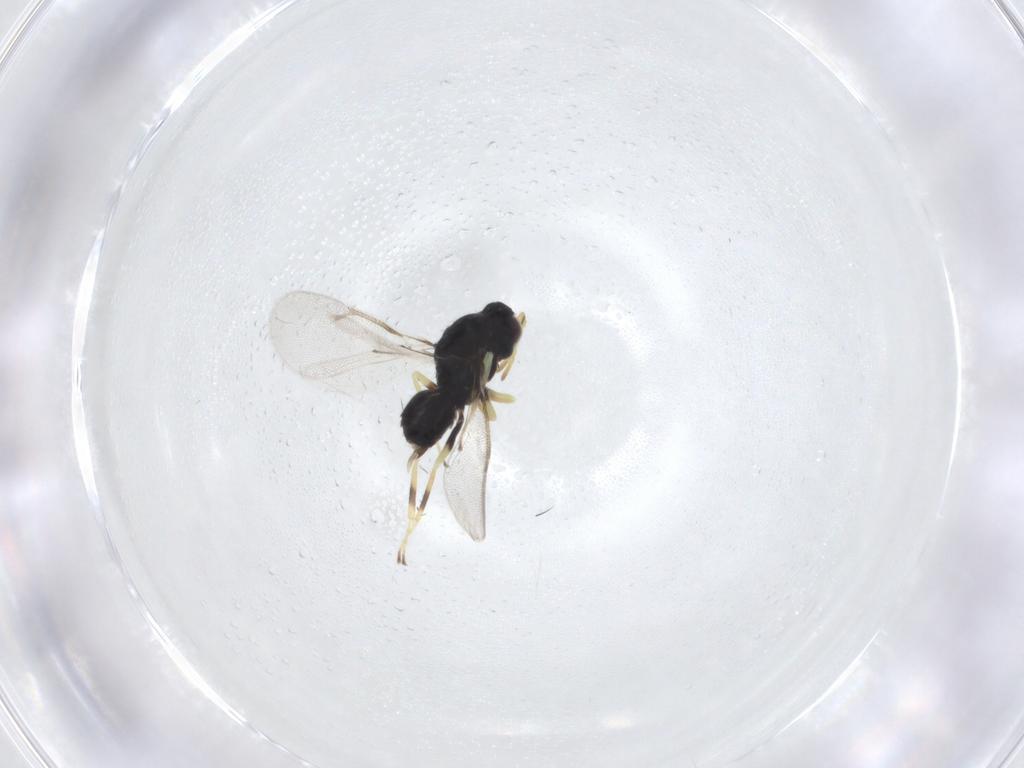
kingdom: Animalia
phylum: Arthropoda
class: Insecta
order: Hymenoptera
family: Eulophidae
